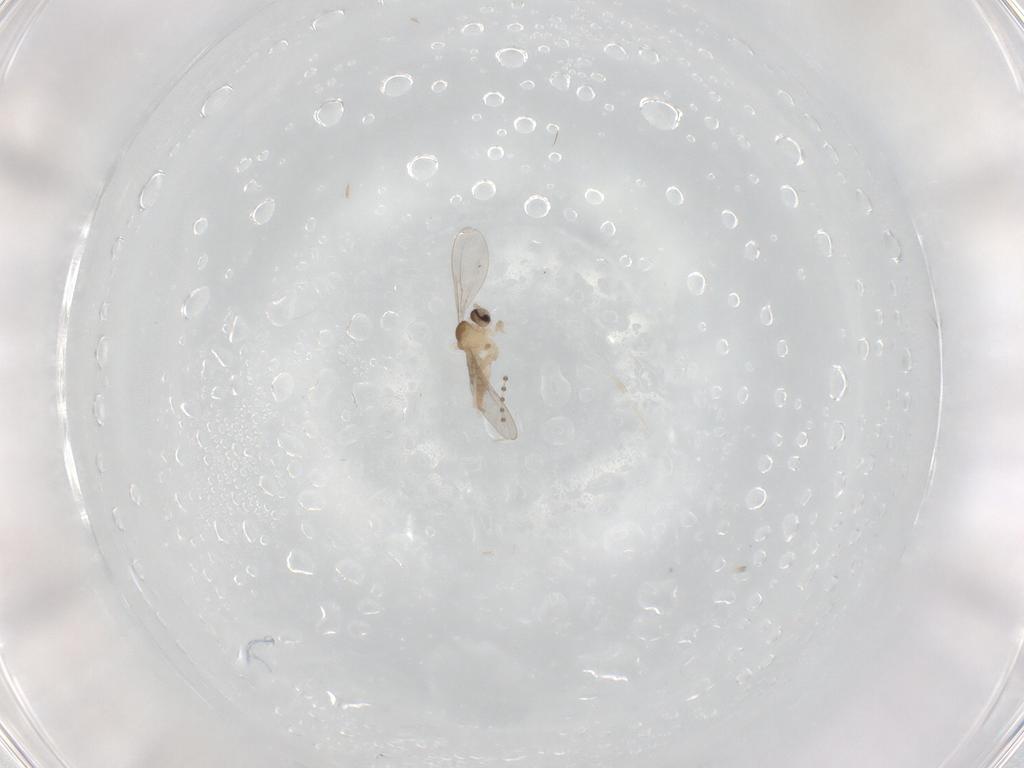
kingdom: Animalia
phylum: Arthropoda
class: Insecta
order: Diptera
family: Cecidomyiidae
